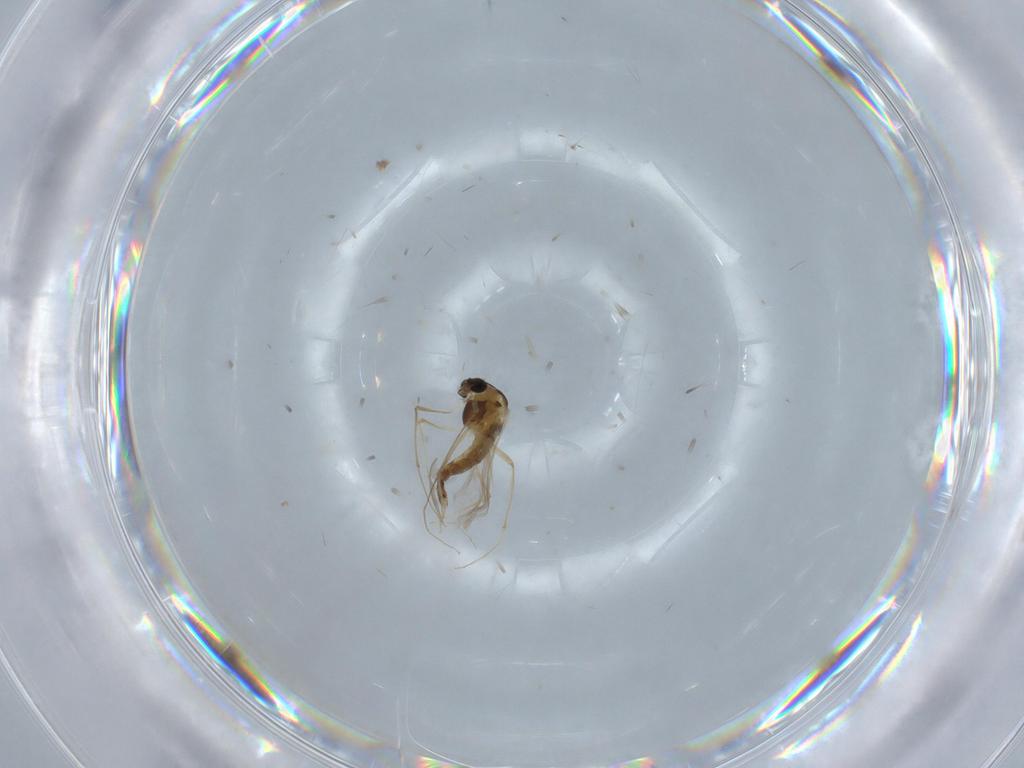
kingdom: Animalia
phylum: Arthropoda
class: Insecta
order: Diptera
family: Chironomidae
